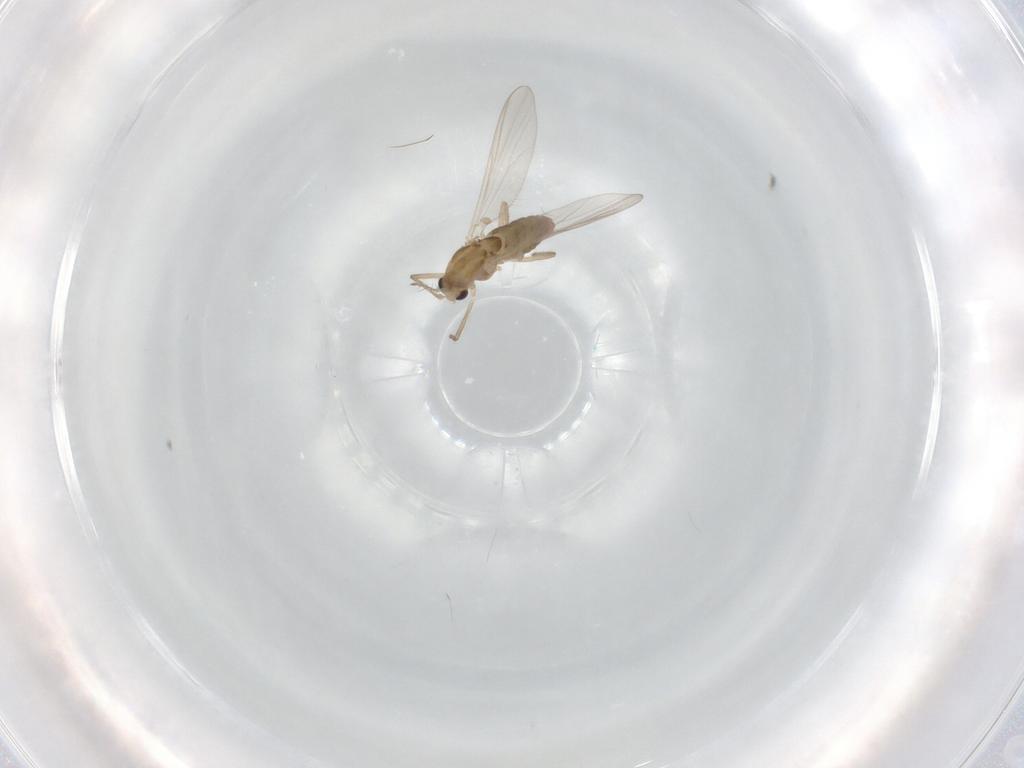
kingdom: Animalia
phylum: Arthropoda
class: Insecta
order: Diptera
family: Chironomidae
